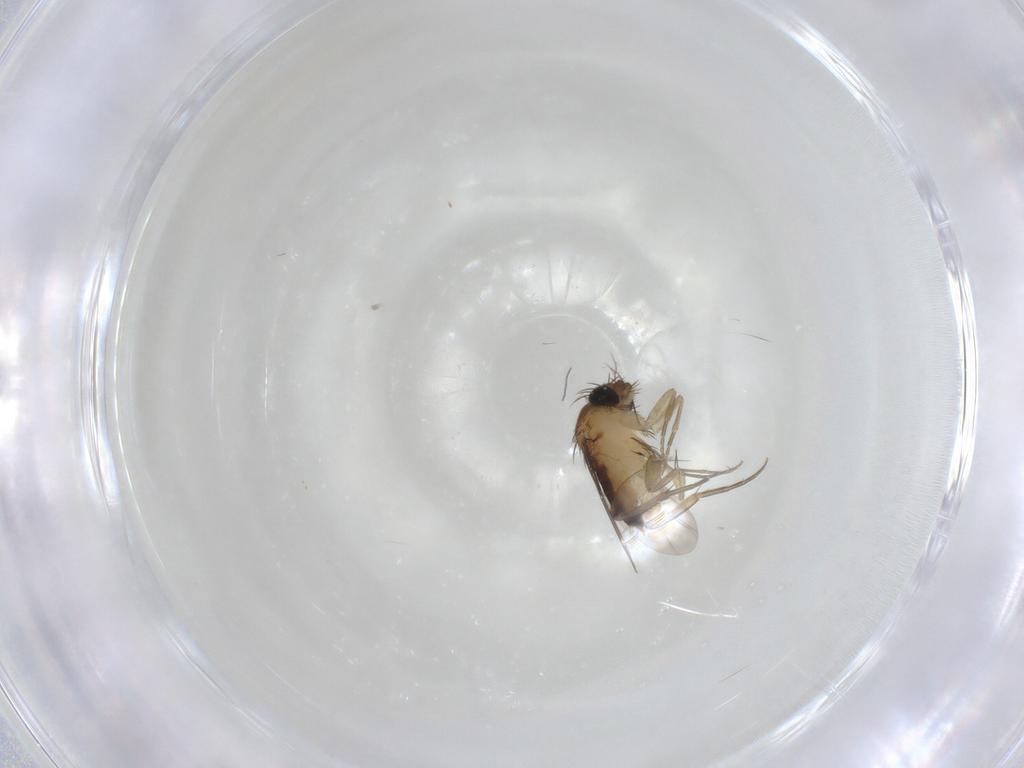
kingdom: Animalia
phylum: Arthropoda
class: Insecta
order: Diptera
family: Phoridae
